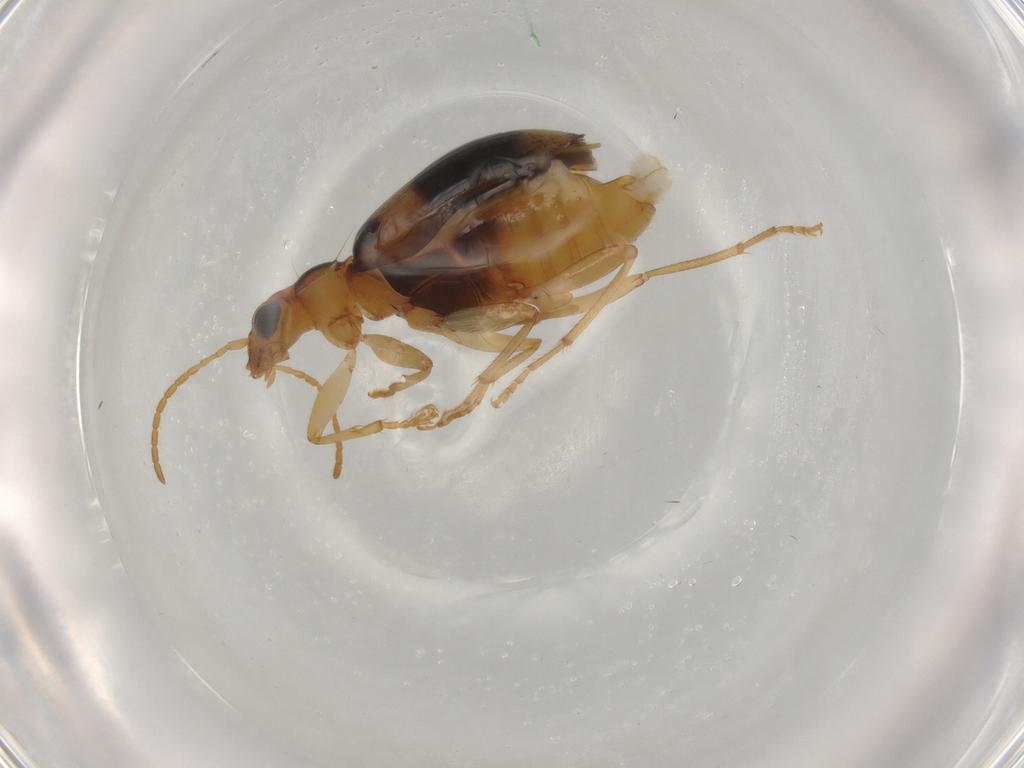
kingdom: Animalia
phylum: Arthropoda
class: Insecta
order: Coleoptera
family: Carabidae
